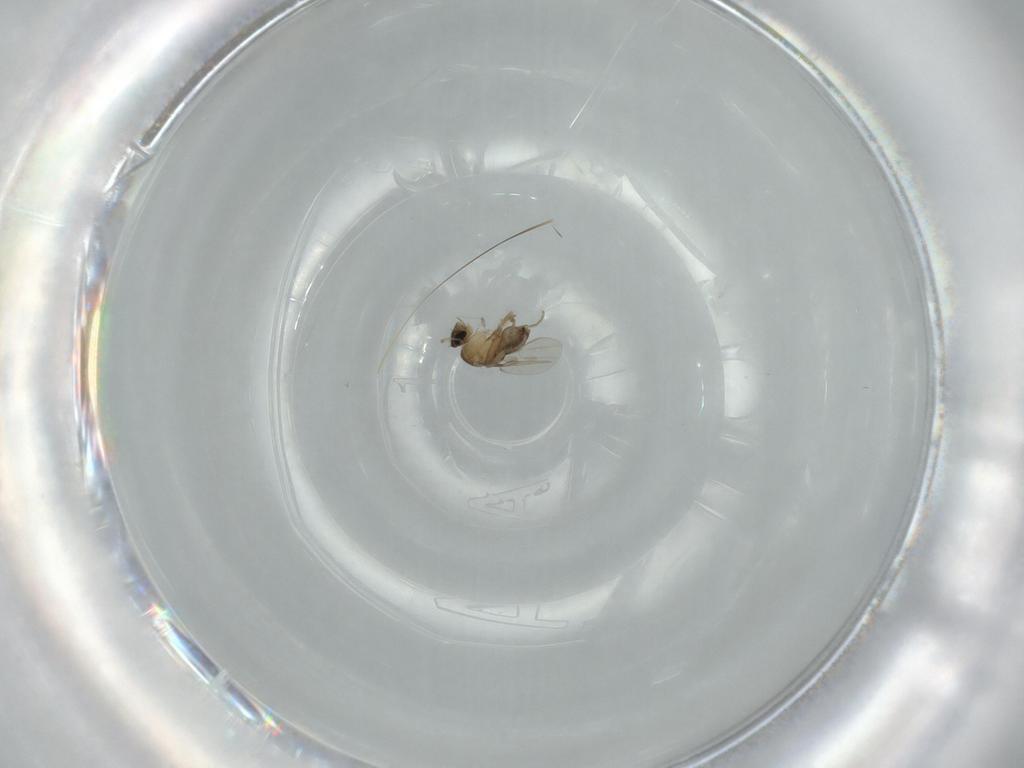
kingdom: Animalia
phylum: Arthropoda
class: Insecta
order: Diptera
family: Phoridae
